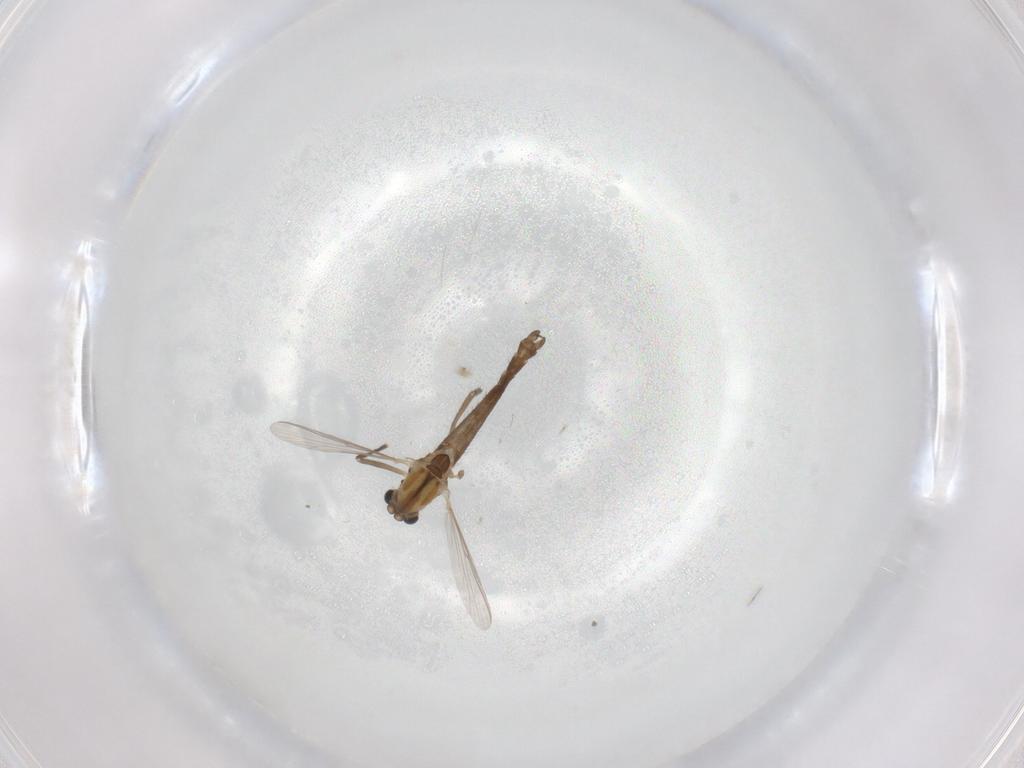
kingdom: Animalia
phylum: Arthropoda
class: Insecta
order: Diptera
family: Chironomidae
